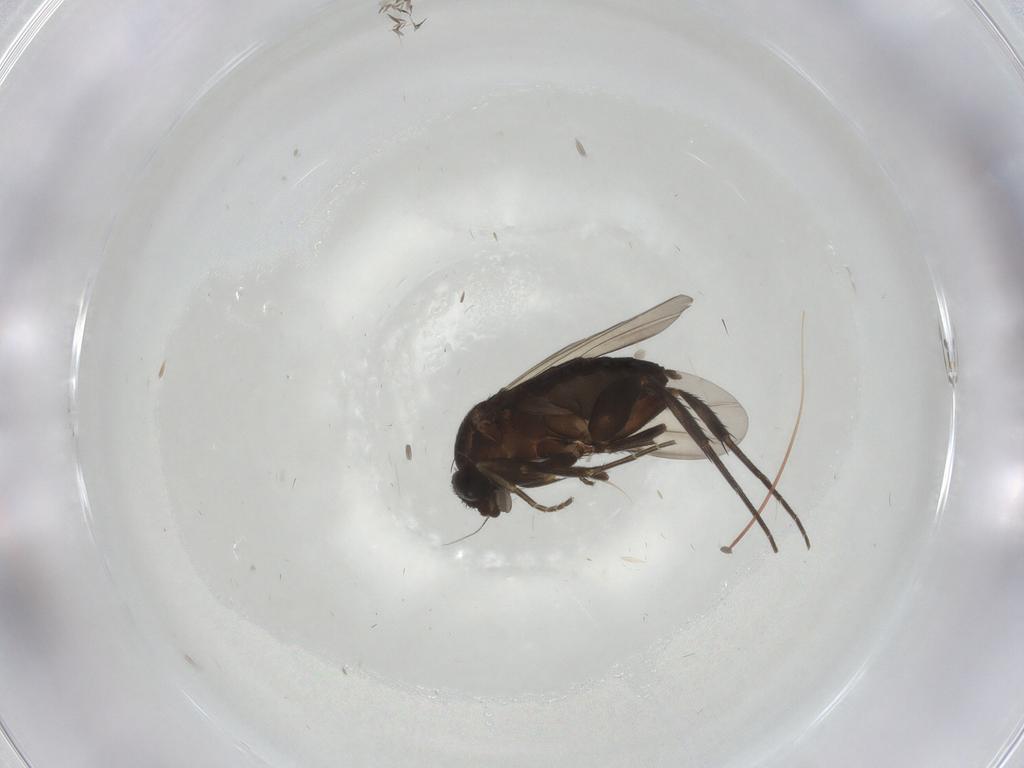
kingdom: Animalia
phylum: Arthropoda
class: Insecta
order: Diptera
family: Phoridae
